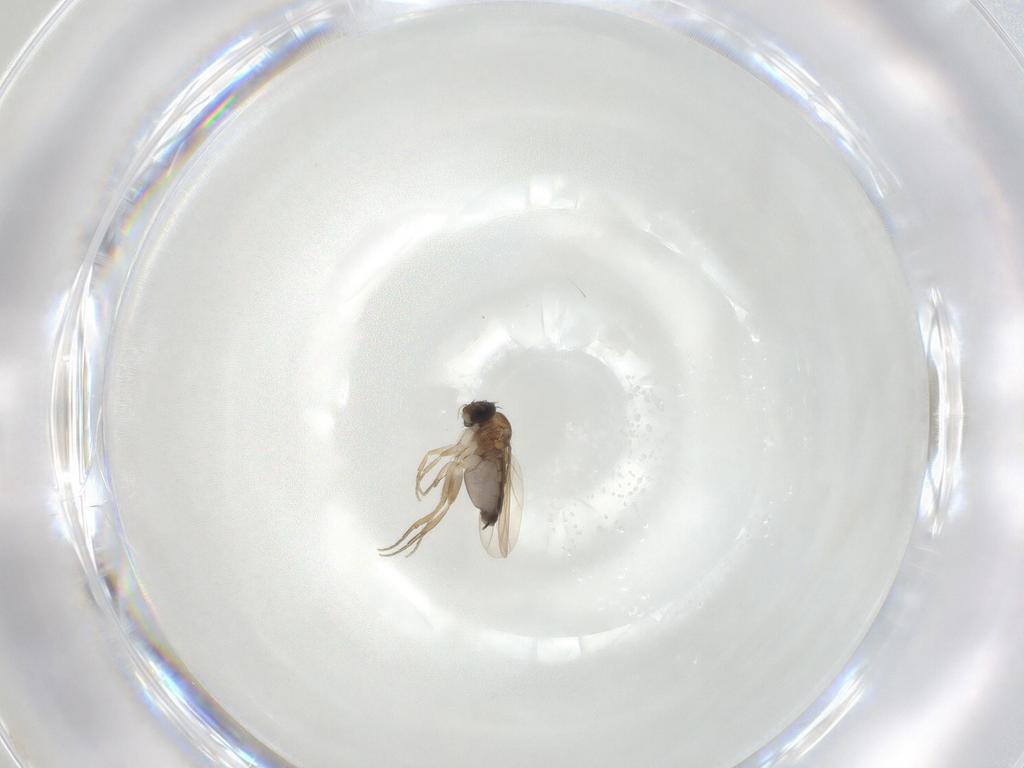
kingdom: Animalia
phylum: Arthropoda
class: Insecta
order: Diptera
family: Phoridae
